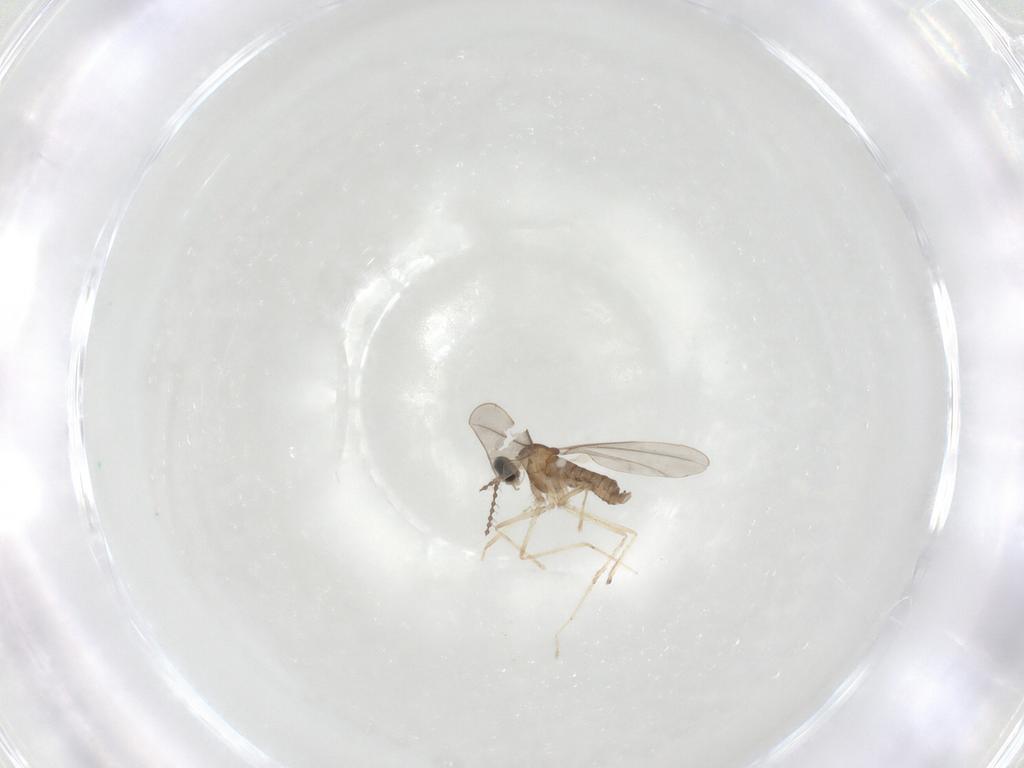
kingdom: Animalia
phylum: Arthropoda
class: Insecta
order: Diptera
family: Cecidomyiidae
